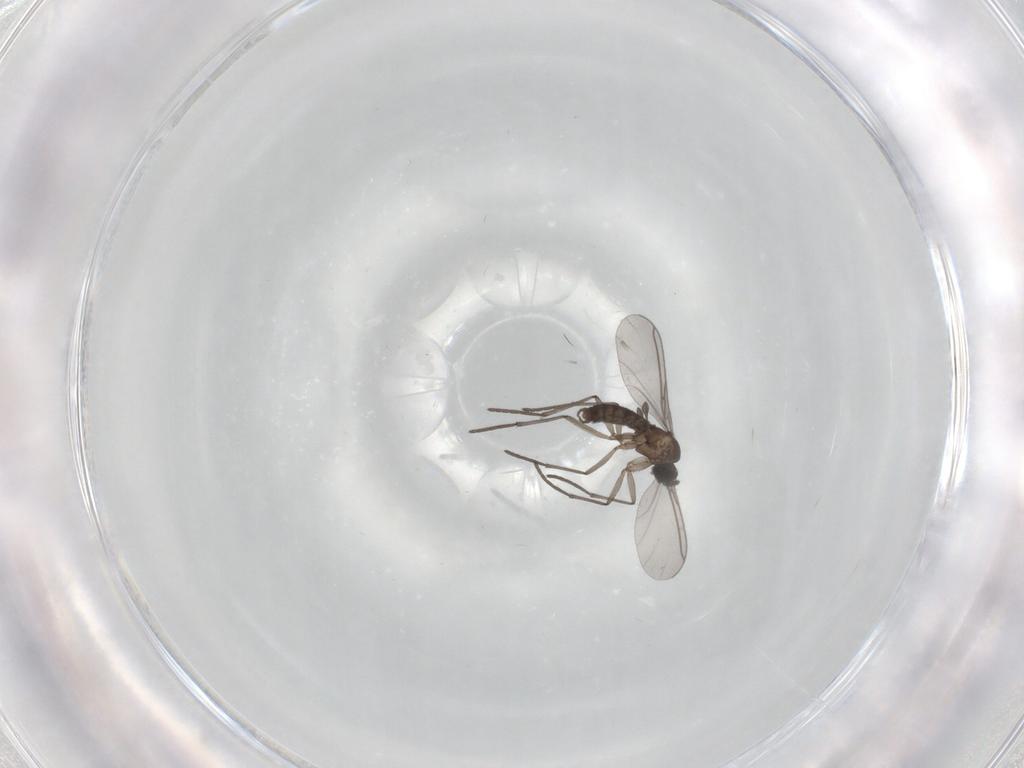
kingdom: Animalia
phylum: Arthropoda
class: Insecta
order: Diptera
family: Sciaridae
